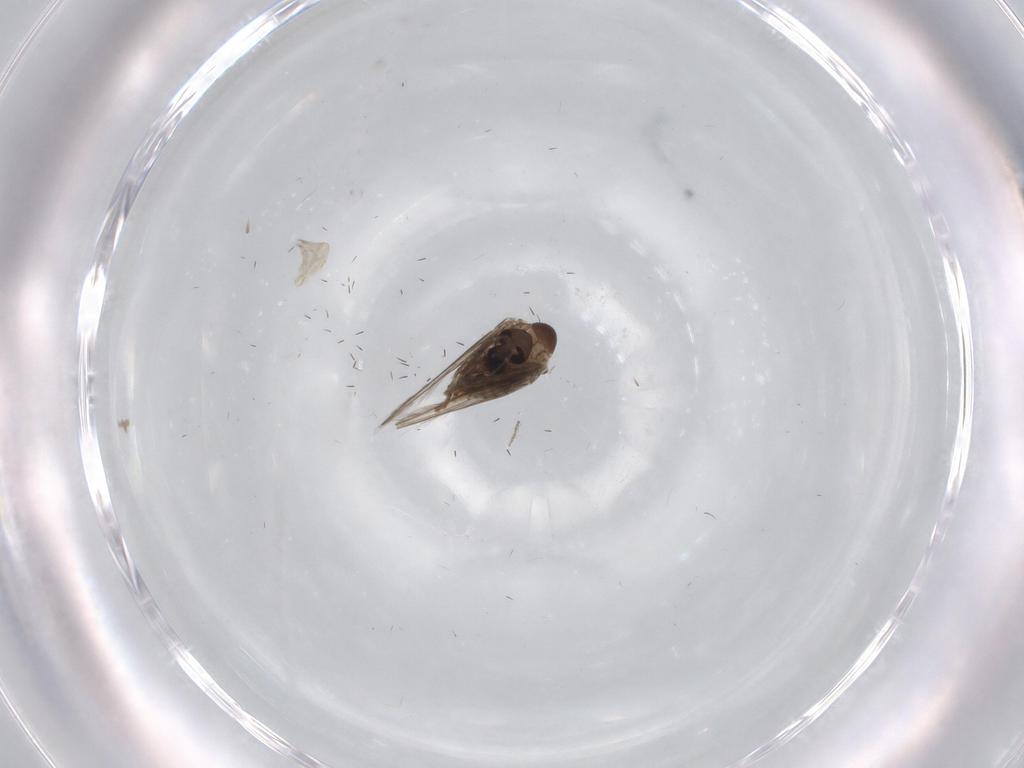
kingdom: Animalia
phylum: Arthropoda
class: Insecta
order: Diptera
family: Psychodidae
